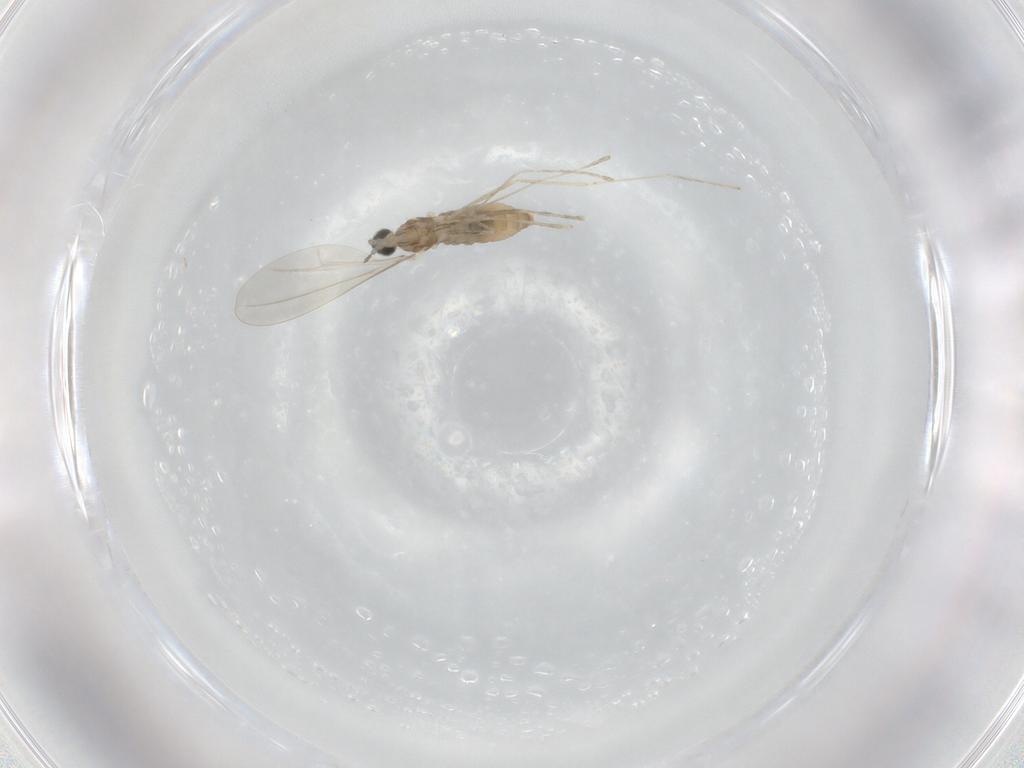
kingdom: Animalia
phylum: Arthropoda
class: Insecta
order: Diptera
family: Cecidomyiidae
